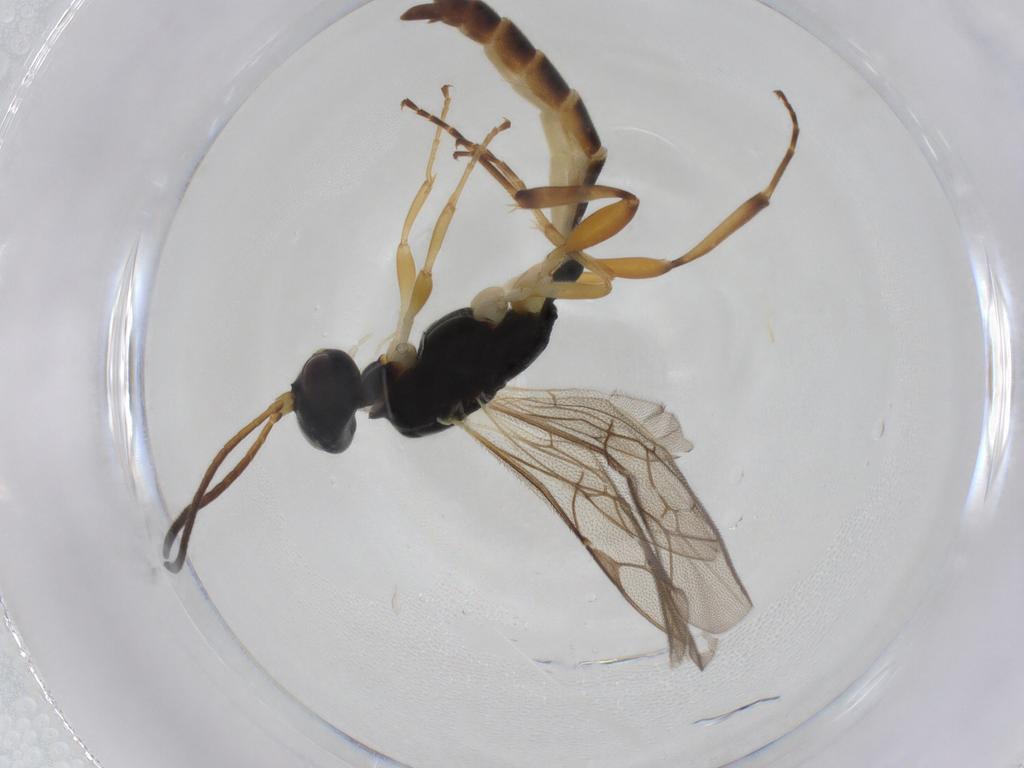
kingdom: Animalia
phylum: Arthropoda
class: Insecta
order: Hymenoptera
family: Ichneumonidae
